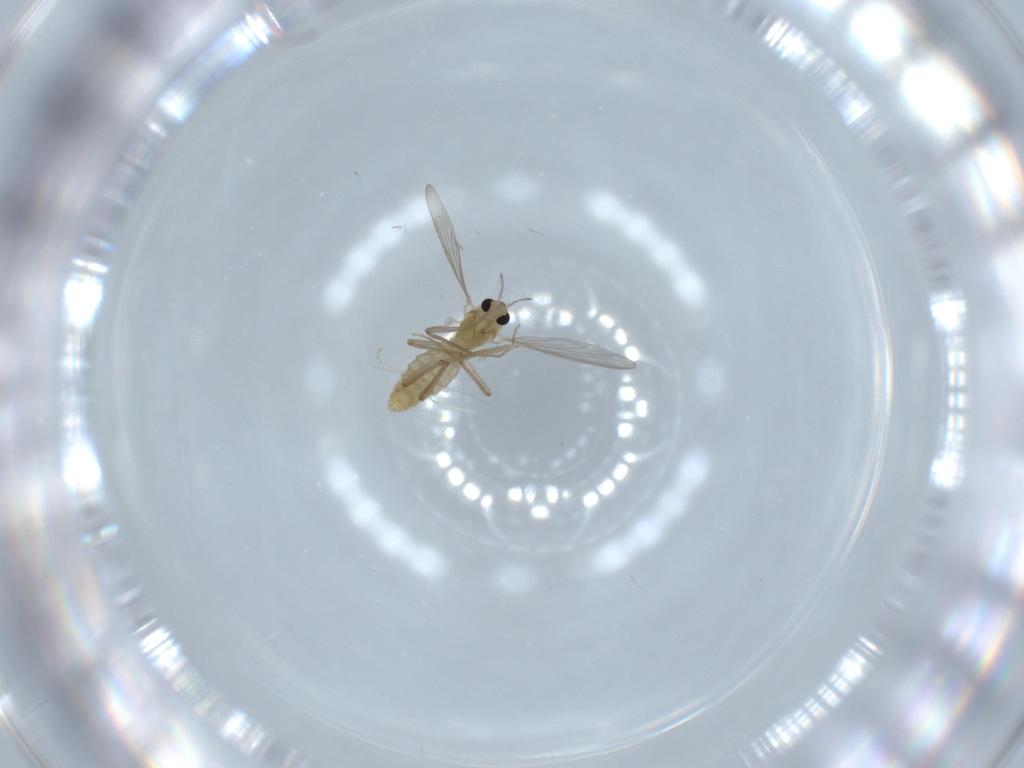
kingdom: Animalia
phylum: Arthropoda
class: Insecta
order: Diptera
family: Chironomidae
